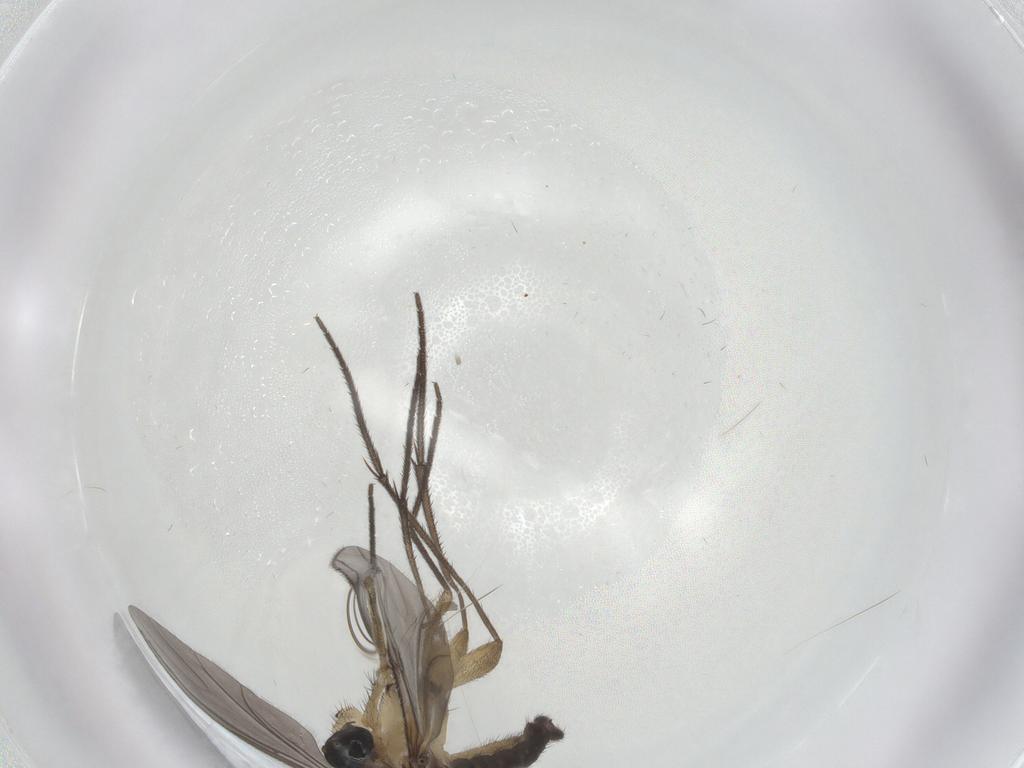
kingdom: Animalia
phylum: Arthropoda
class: Insecta
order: Diptera
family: Sciaridae
